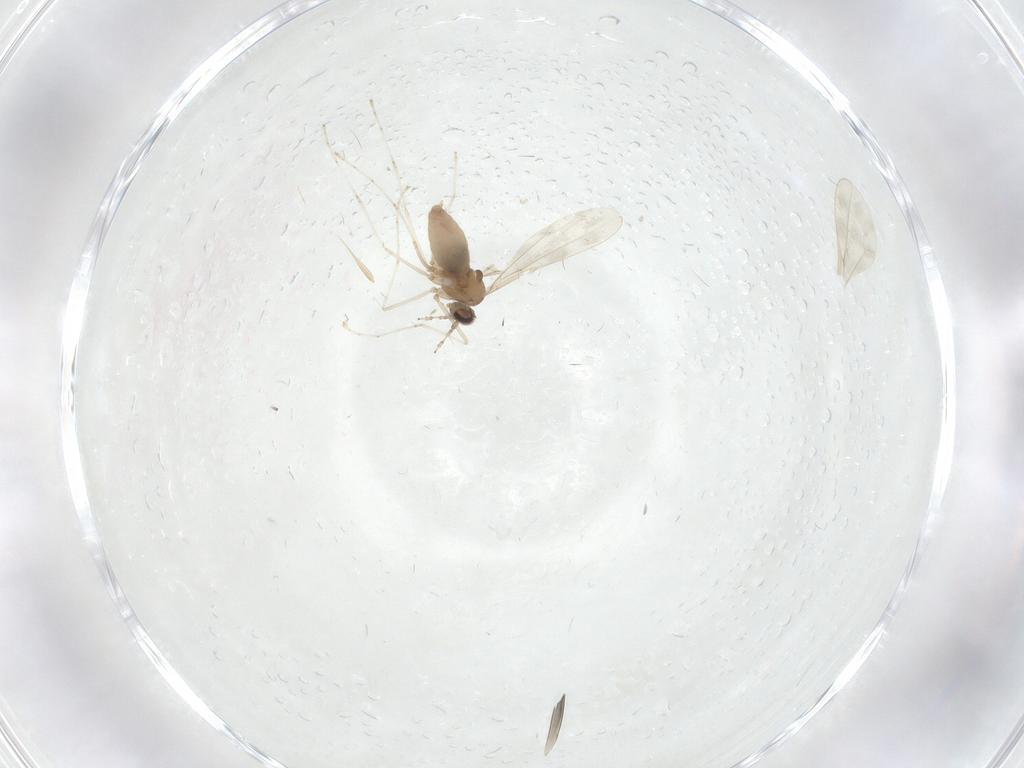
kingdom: Animalia
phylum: Arthropoda
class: Insecta
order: Diptera
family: Cecidomyiidae
